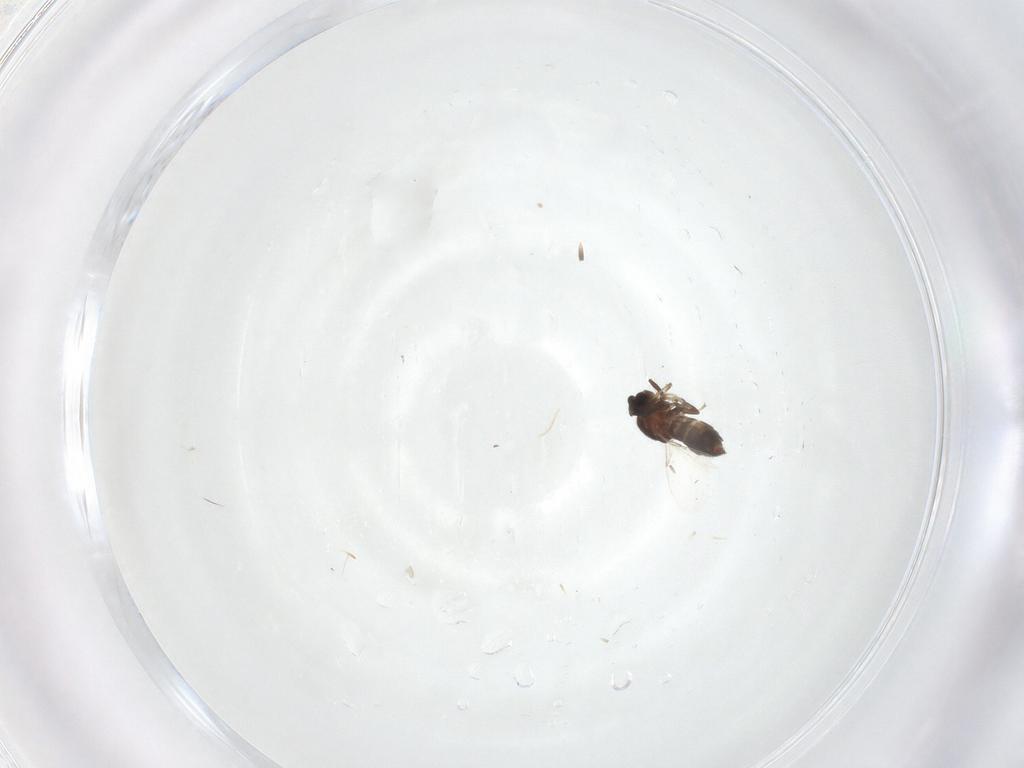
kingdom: Animalia
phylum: Arthropoda
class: Insecta
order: Diptera
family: Scatopsidae
